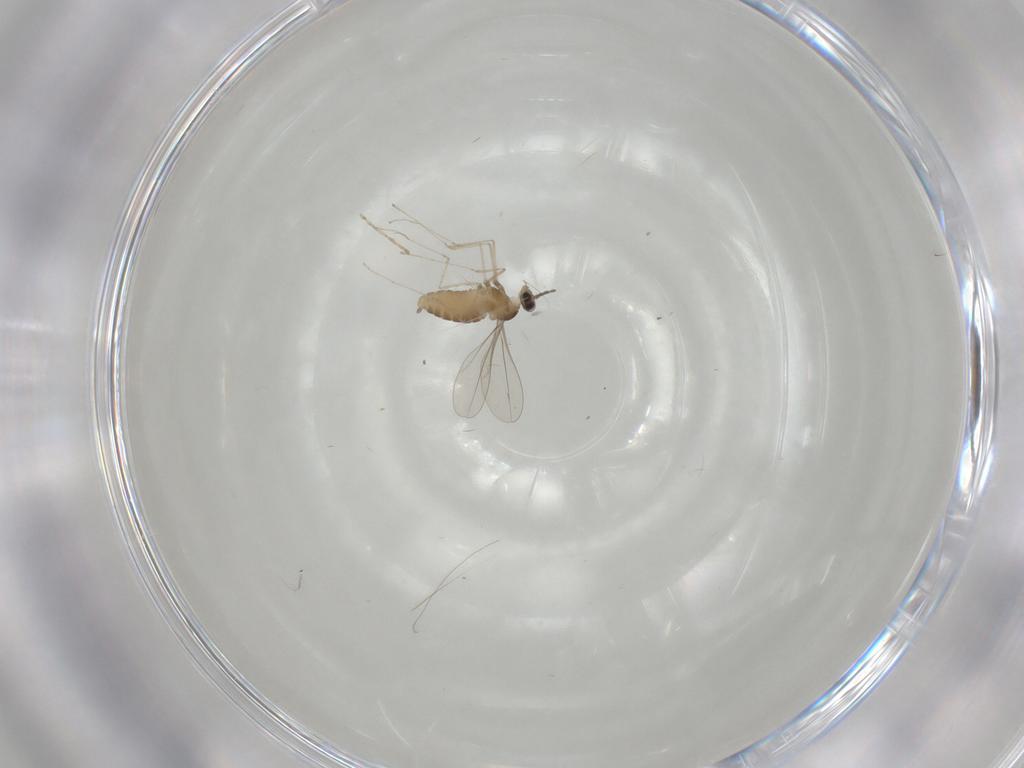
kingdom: Animalia
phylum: Arthropoda
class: Insecta
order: Diptera
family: Cecidomyiidae
